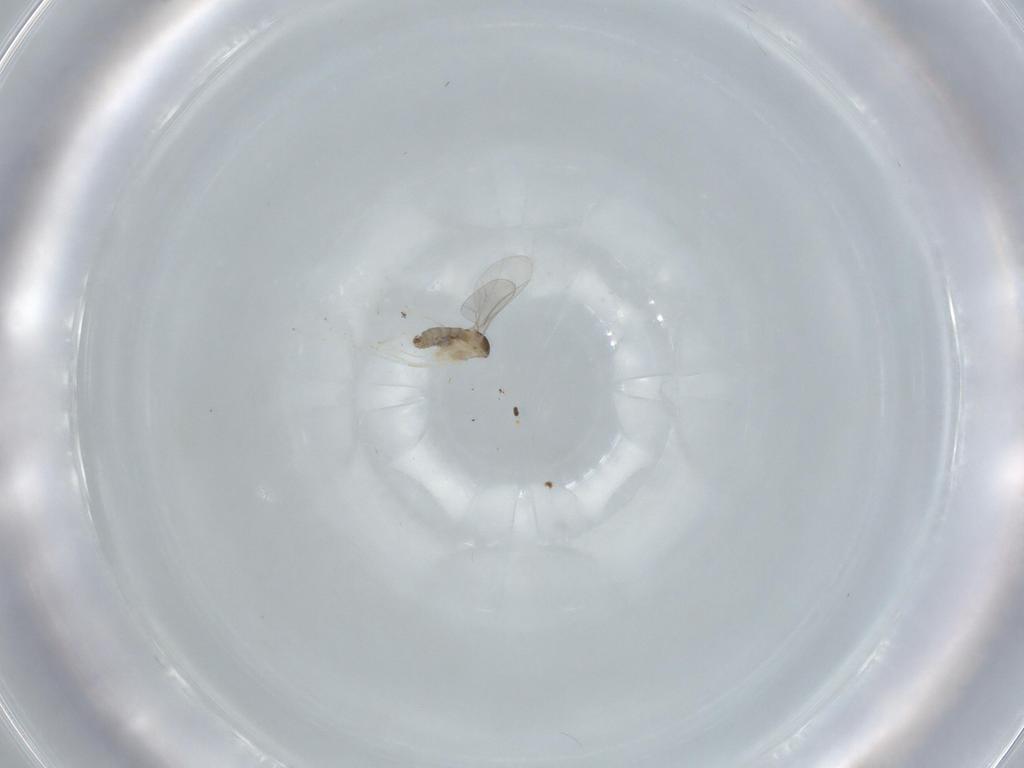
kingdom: Animalia
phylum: Arthropoda
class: Insecta
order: Diptera
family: Cecidomyiidae
